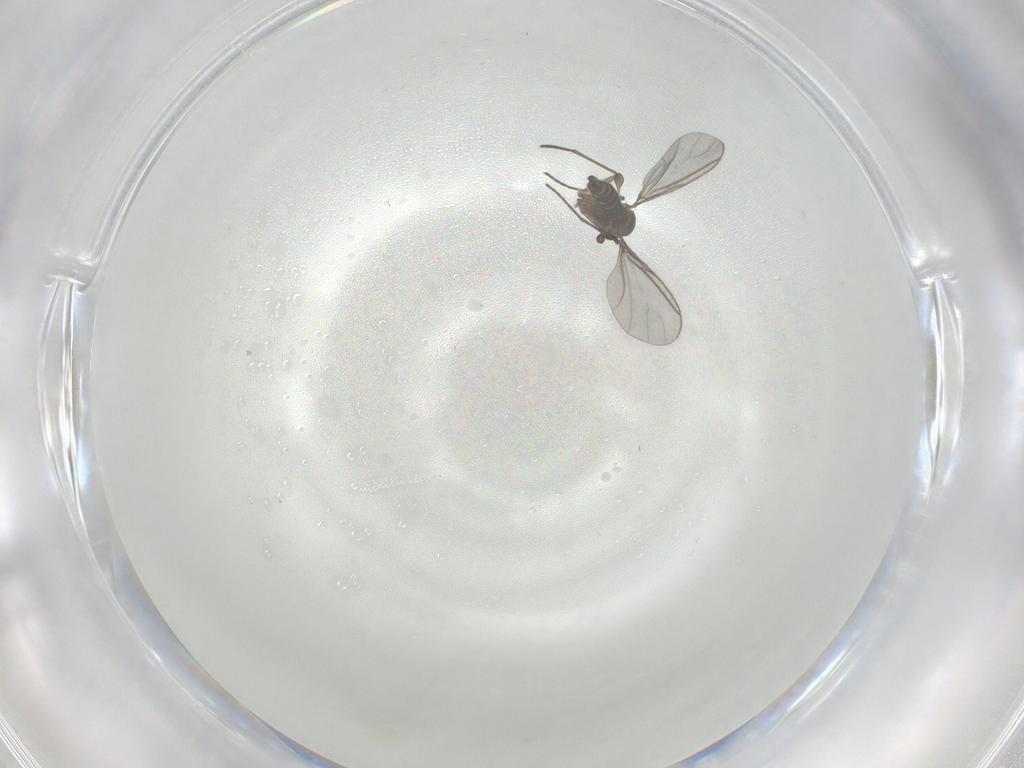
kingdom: Animalia
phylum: Arthropoda
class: Insecta
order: Diptera
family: Sciaridae
